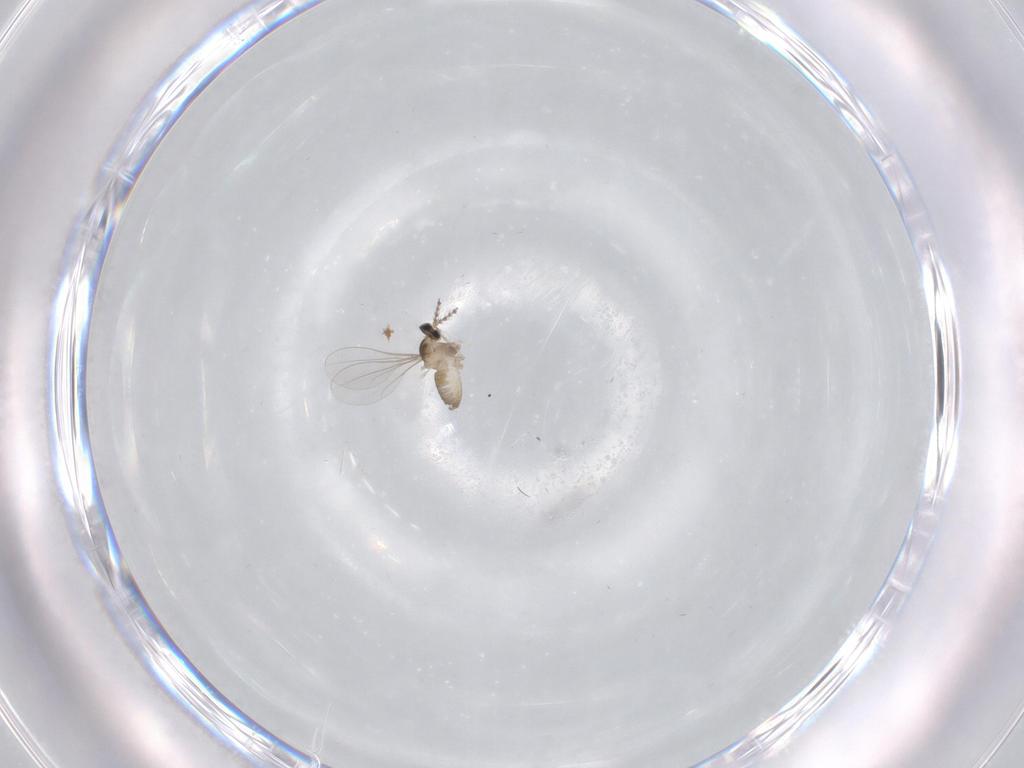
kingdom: Animalia
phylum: Arthropoda
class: Insecta
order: Diptera
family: Cecidomyiidae
